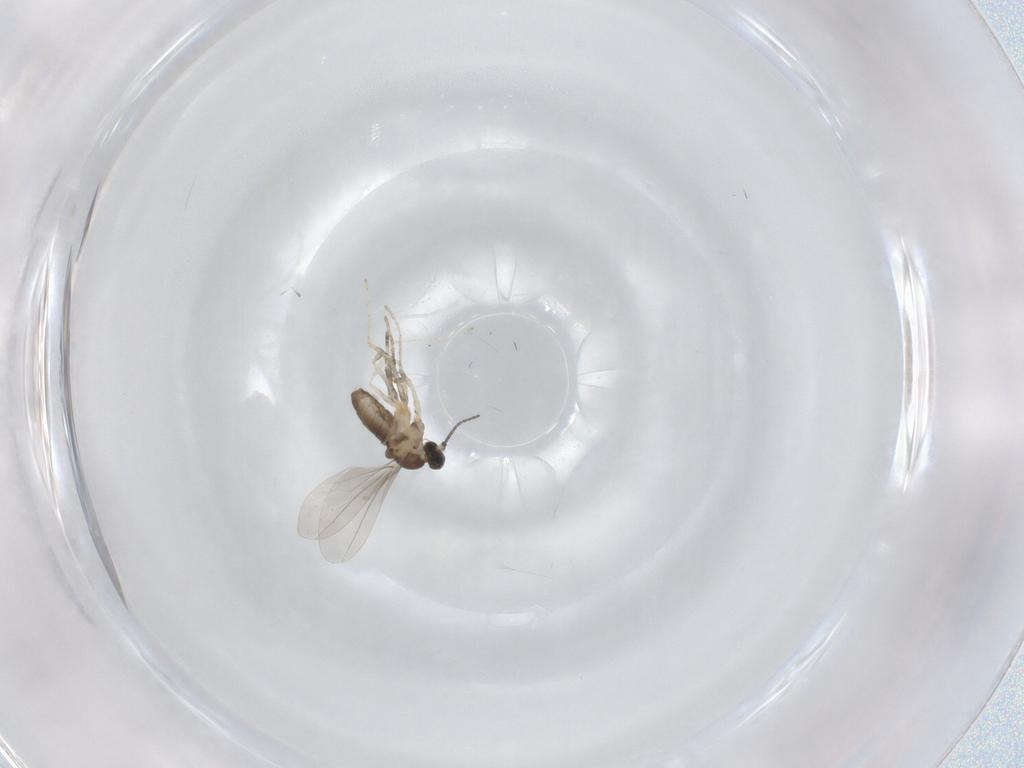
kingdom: Animalia
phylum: Arthropoda
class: Insecta
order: Diptera
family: Cecidomyiidae
